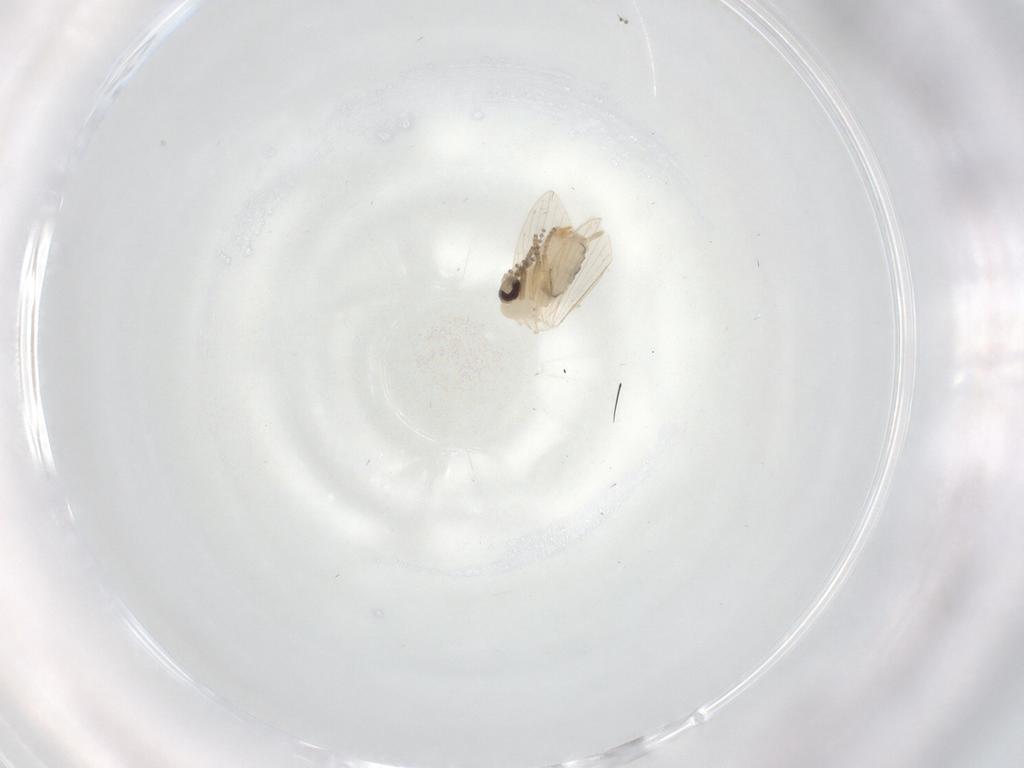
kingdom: Animalia
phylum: Arthropoda
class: Insecta
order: Diptera
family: Psychodidae
